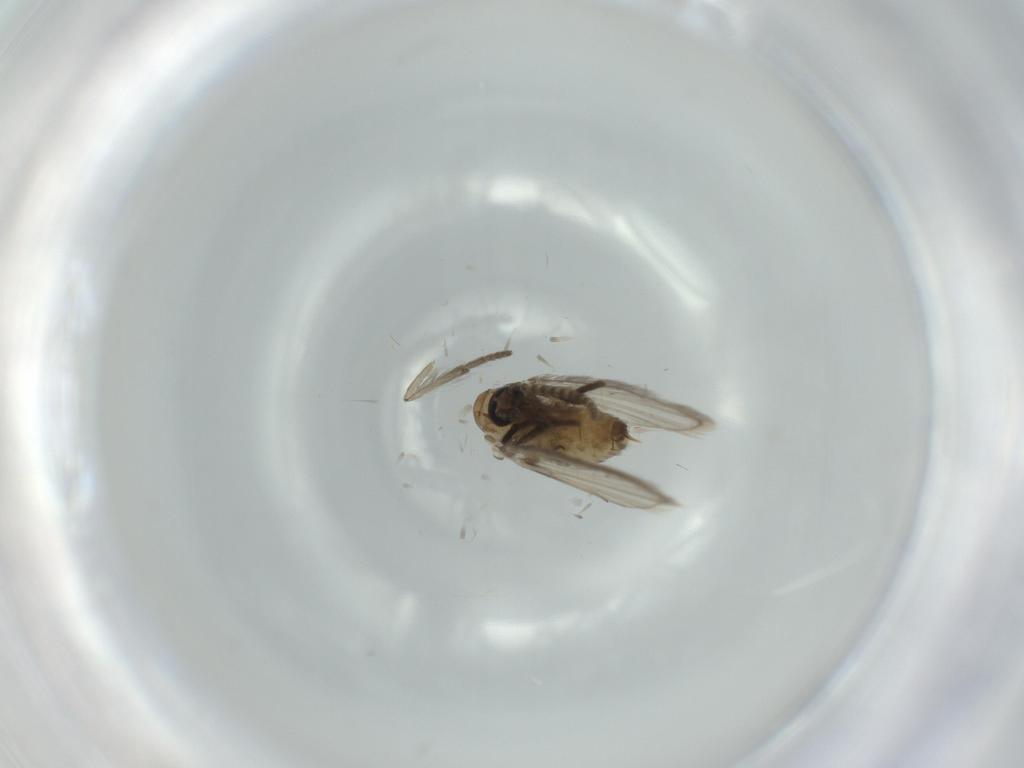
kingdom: Animalia
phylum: Arthropoda
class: Insecta
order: Diptera
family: Psychodidae
